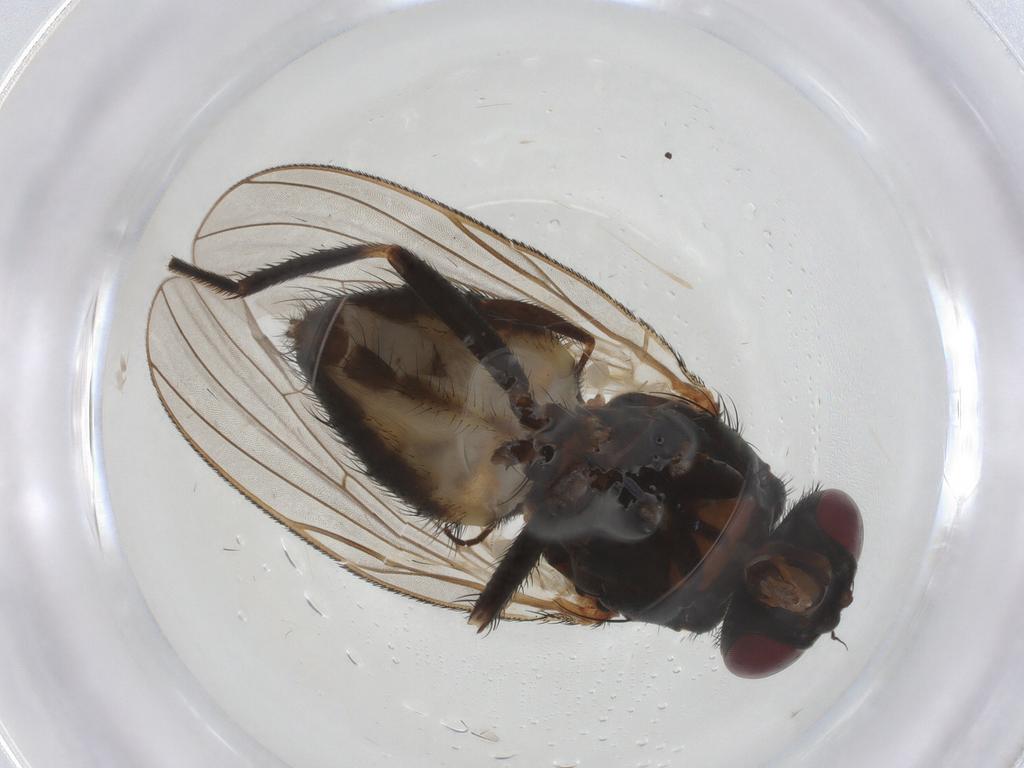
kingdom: Animalia
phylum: Arthropoda
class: Insecta
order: Diptera
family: Empididae
